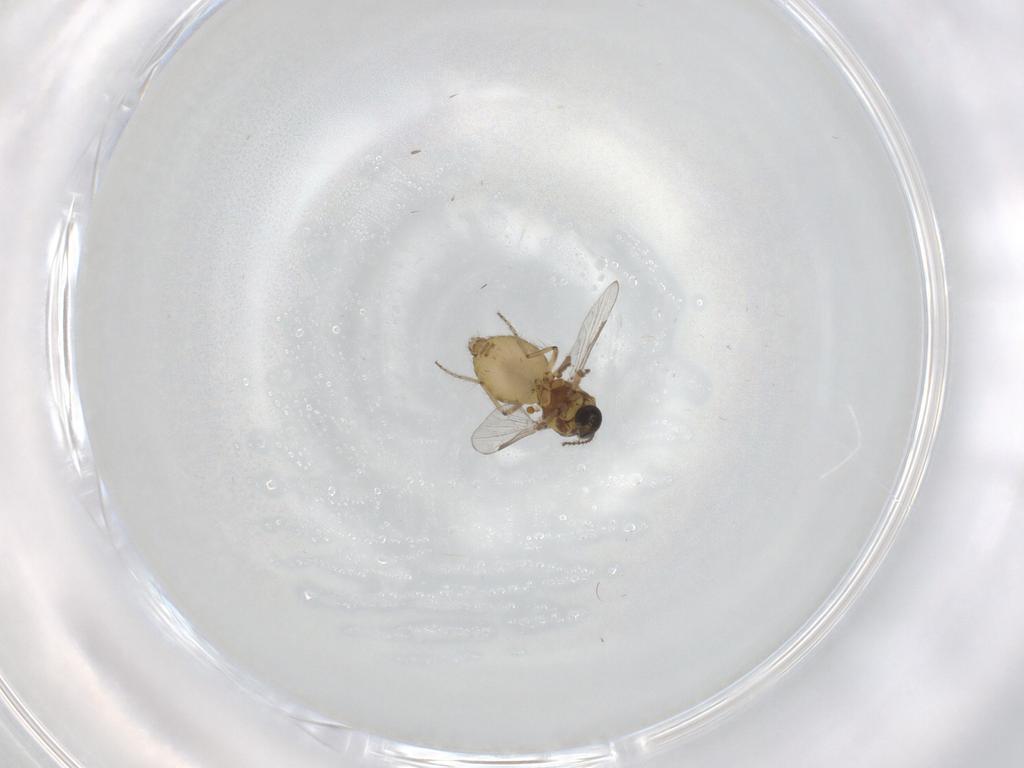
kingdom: Animalia
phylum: Arthropoda
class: Insecta
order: Diptera
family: Ceratopogonidae
